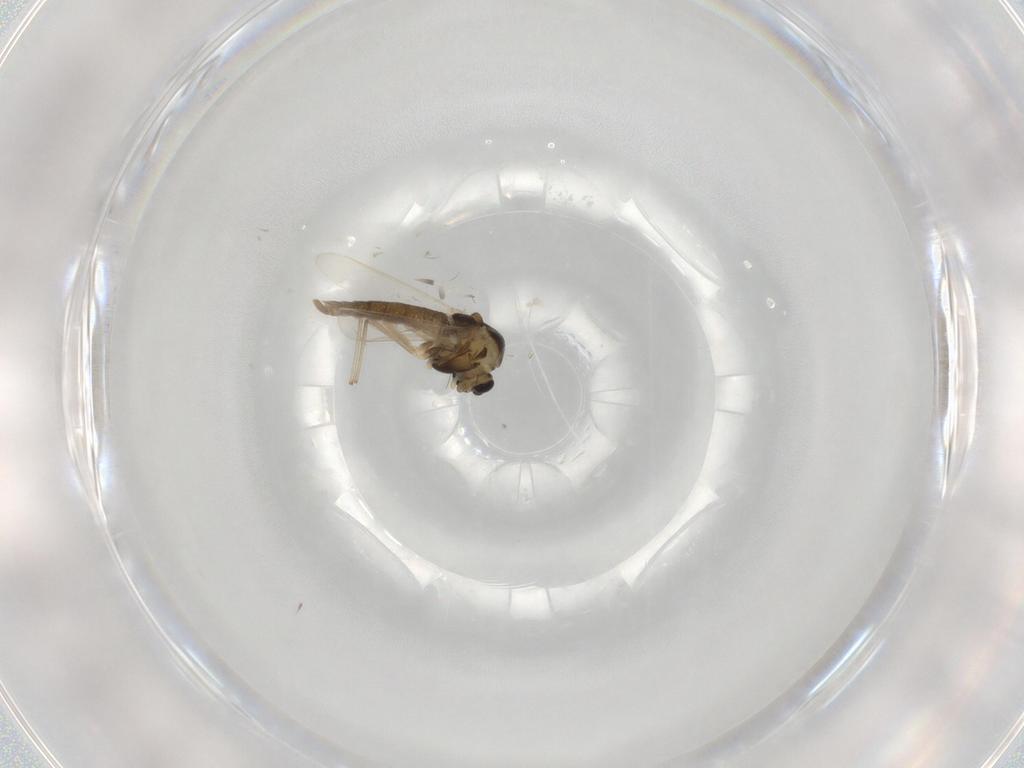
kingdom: Animalia
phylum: Arthropoda
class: Insecta
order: Diptera
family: Chironomidae
